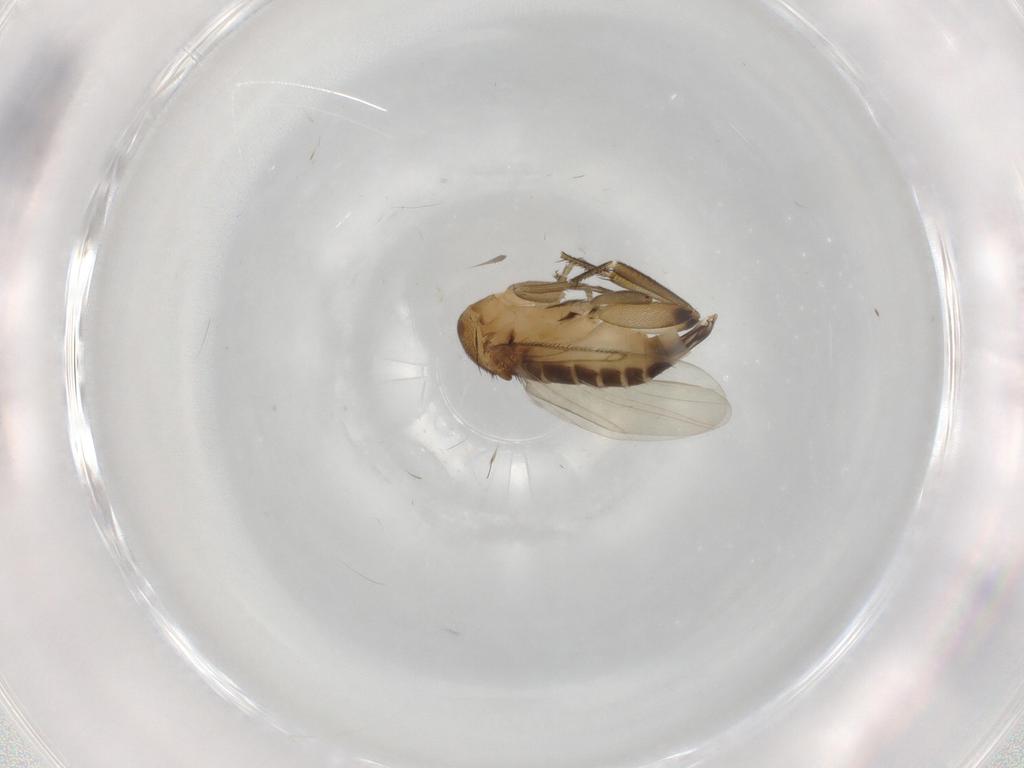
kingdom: Animalia
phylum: Arthropoda
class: Insecta
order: Diptera
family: Phoridae
